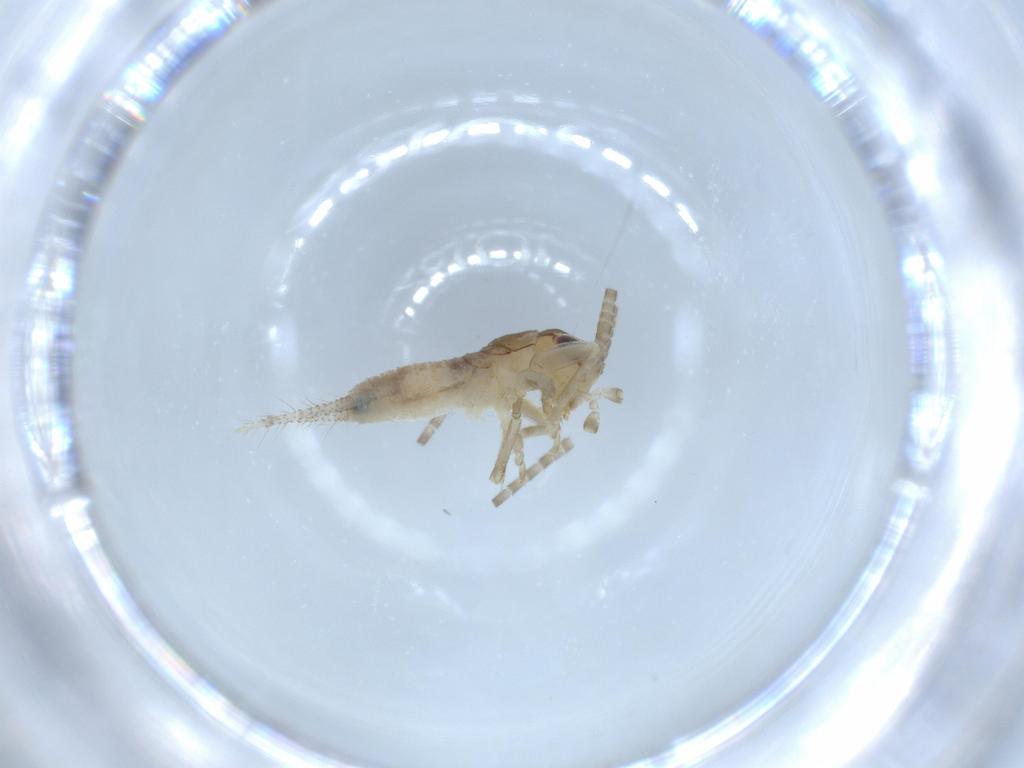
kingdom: Animalia
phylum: Arthropoda
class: Insecta
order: Orthoptera
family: Gryllidae
